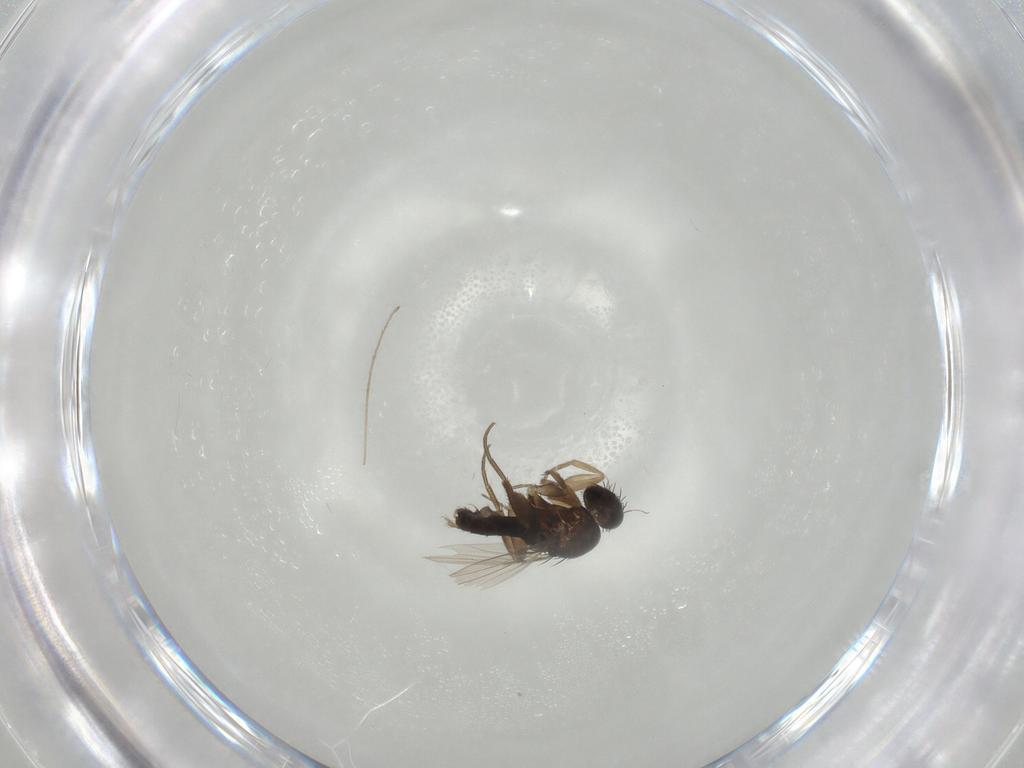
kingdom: Animalia
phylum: Arthropoda
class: Insecta
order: Diptera
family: Phoridae
